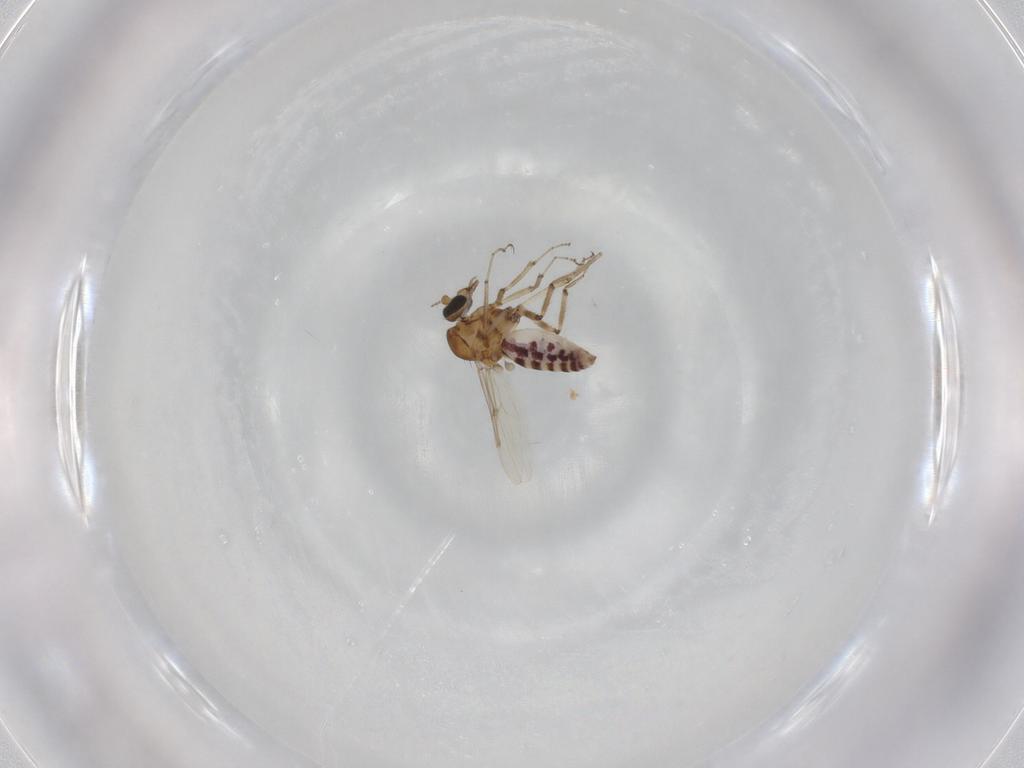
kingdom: Animalia
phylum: Arthropoda
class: Insecta
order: Diptera
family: Ceratopogonidae
